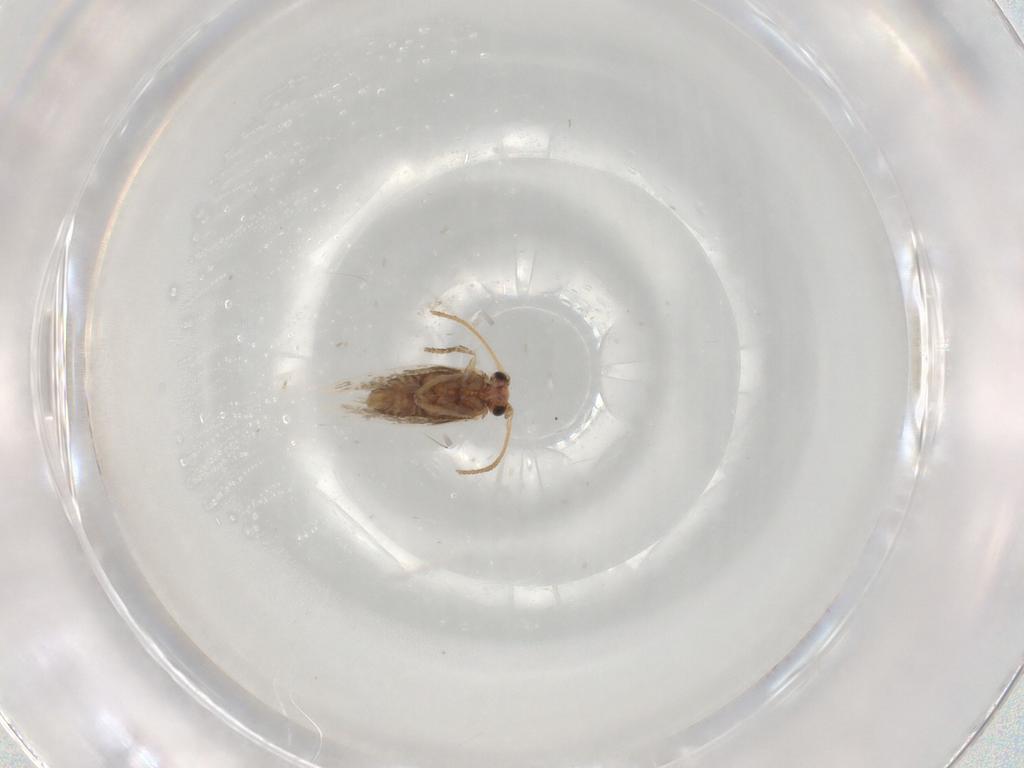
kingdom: Animalia
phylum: Arthropoda
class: Insecta
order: Lepidoptera
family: Nepticulidae
